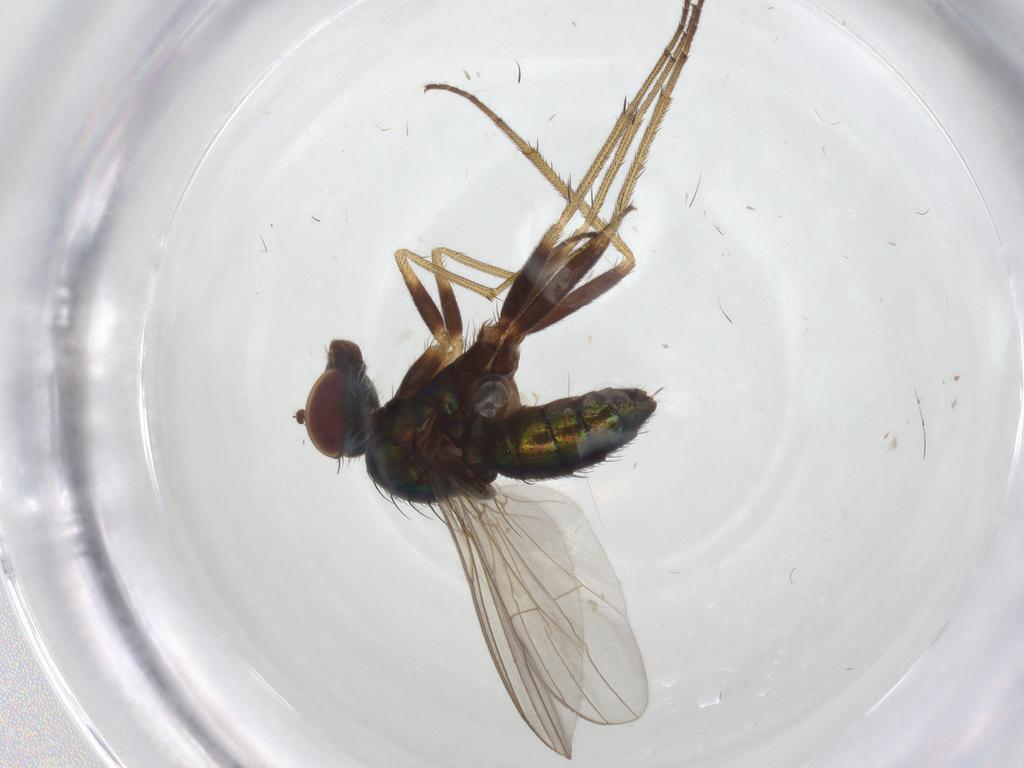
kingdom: Animalia
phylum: Arthropoda
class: Insecta
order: Diptera
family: Dolichopodidae
